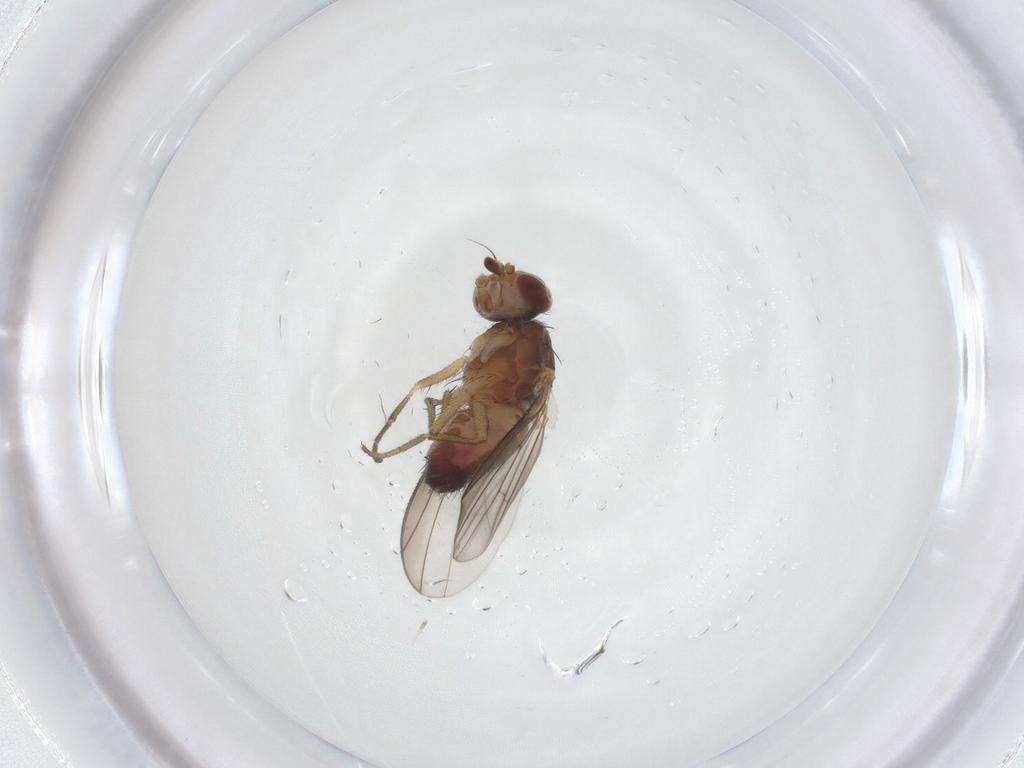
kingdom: Animalia
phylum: Arthropoda
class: Insecta
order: Diptera
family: Heleomyzidae
